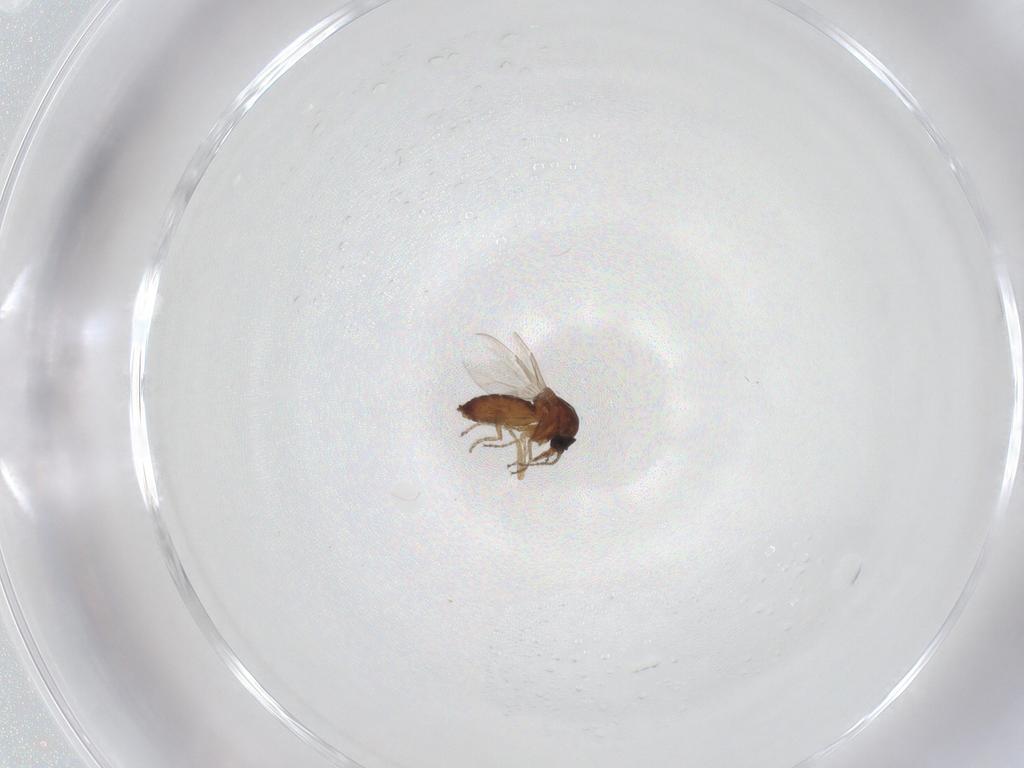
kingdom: Animalia
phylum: Arthropoda
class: Insecta
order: Diptera
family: Ceratopogonidae
